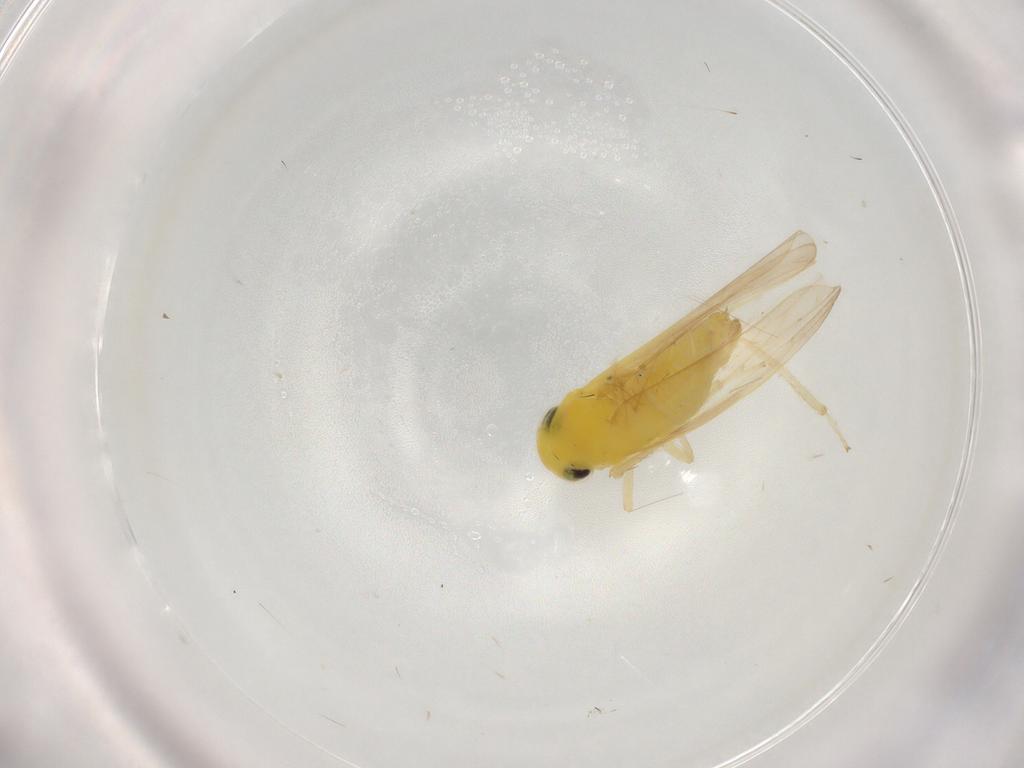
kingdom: Animalia
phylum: Arthropoda
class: Insecta
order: Hemiptera
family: Cicadellidae
